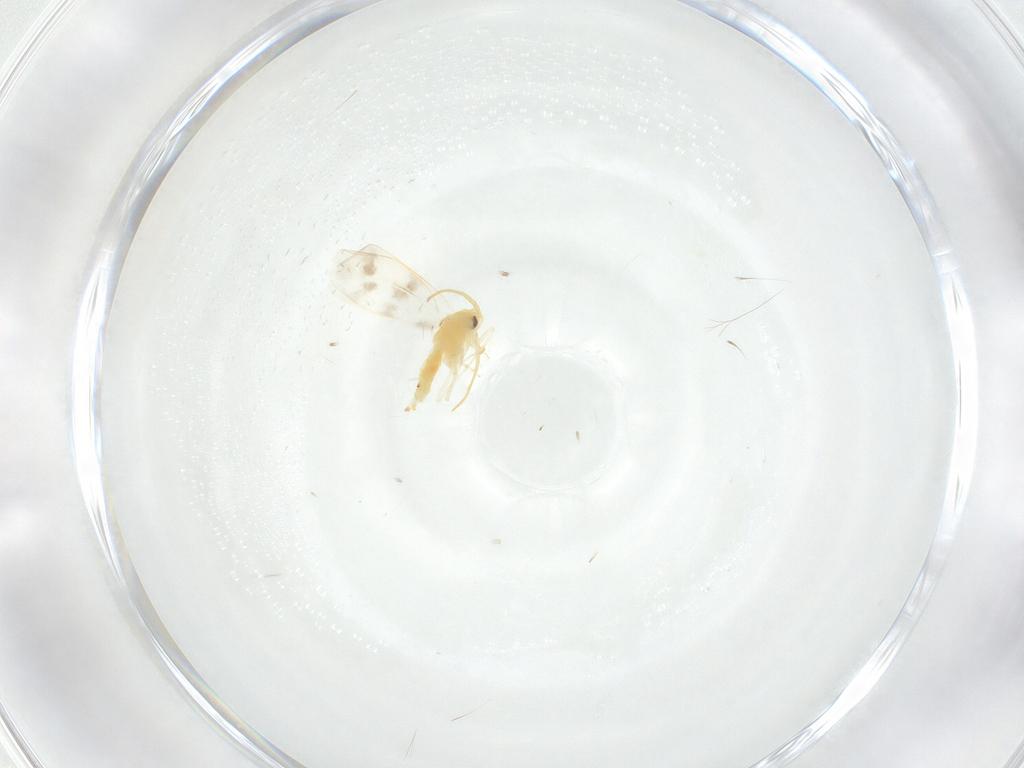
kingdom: Animalia
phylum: Arthropoda
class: Insecta
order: Hemiptera
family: Aleyrodidae
